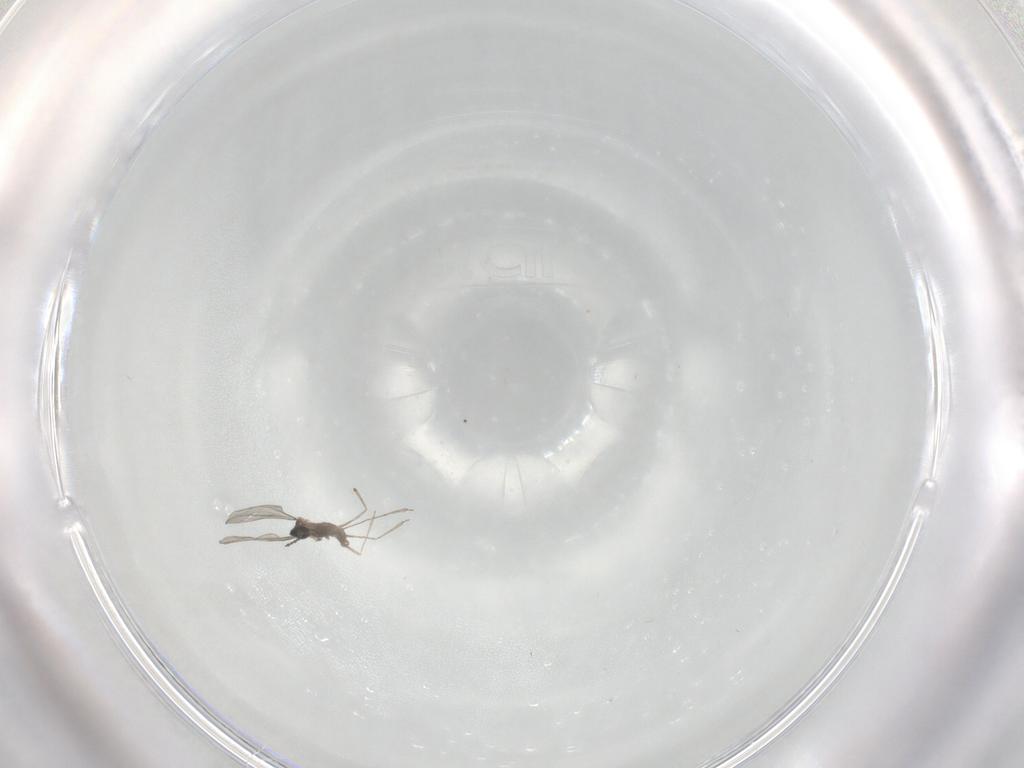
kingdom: Animalia
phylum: Arthropoda
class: Insecta
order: Diptera
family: Cecidomyiidae
